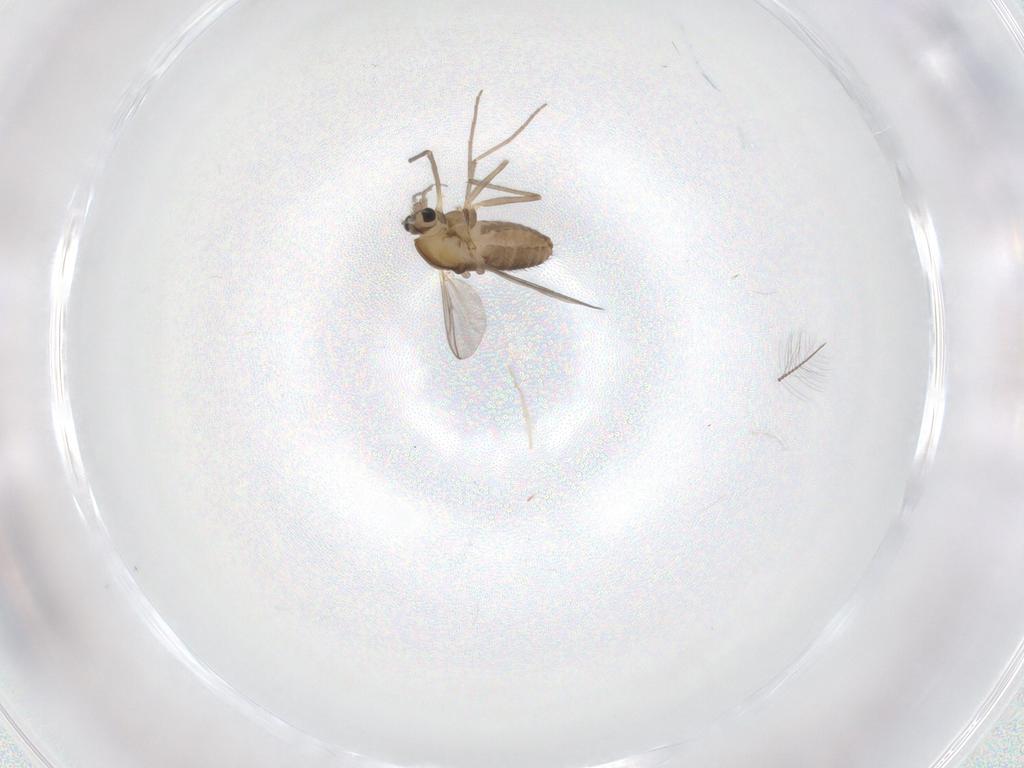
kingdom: Animalia
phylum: Arthropoda
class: Insecta
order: Diptera
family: Chironomidae
